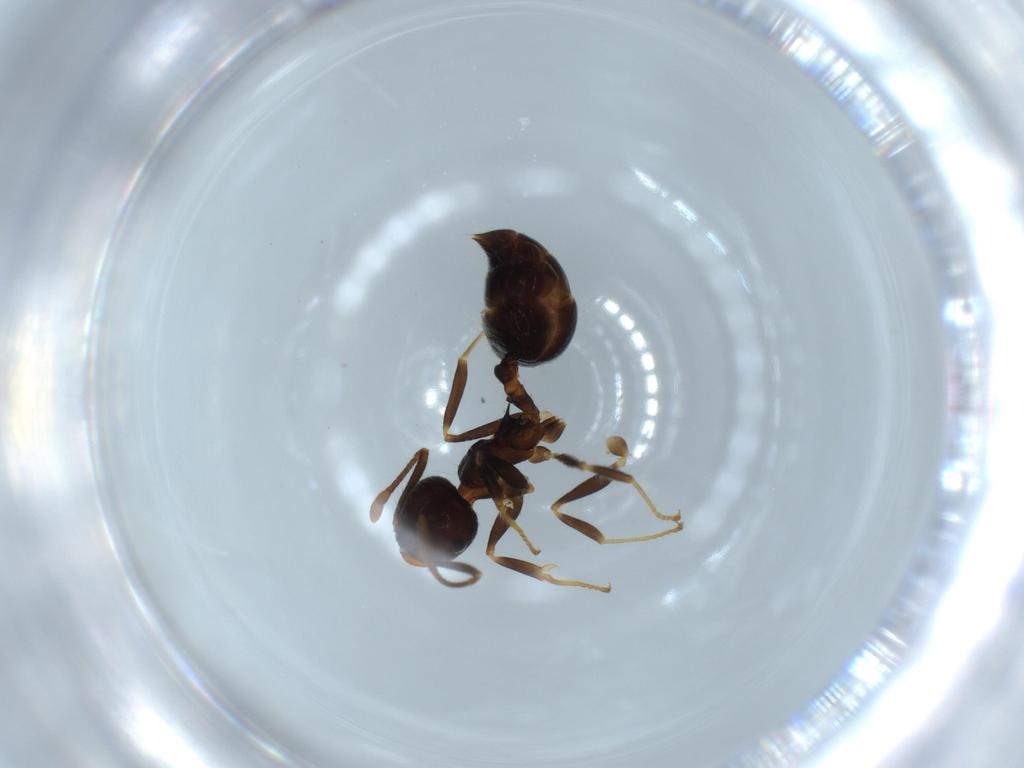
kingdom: Animalia
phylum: Arthropoda
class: Insecta
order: Hymenoptera
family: Formicidae
